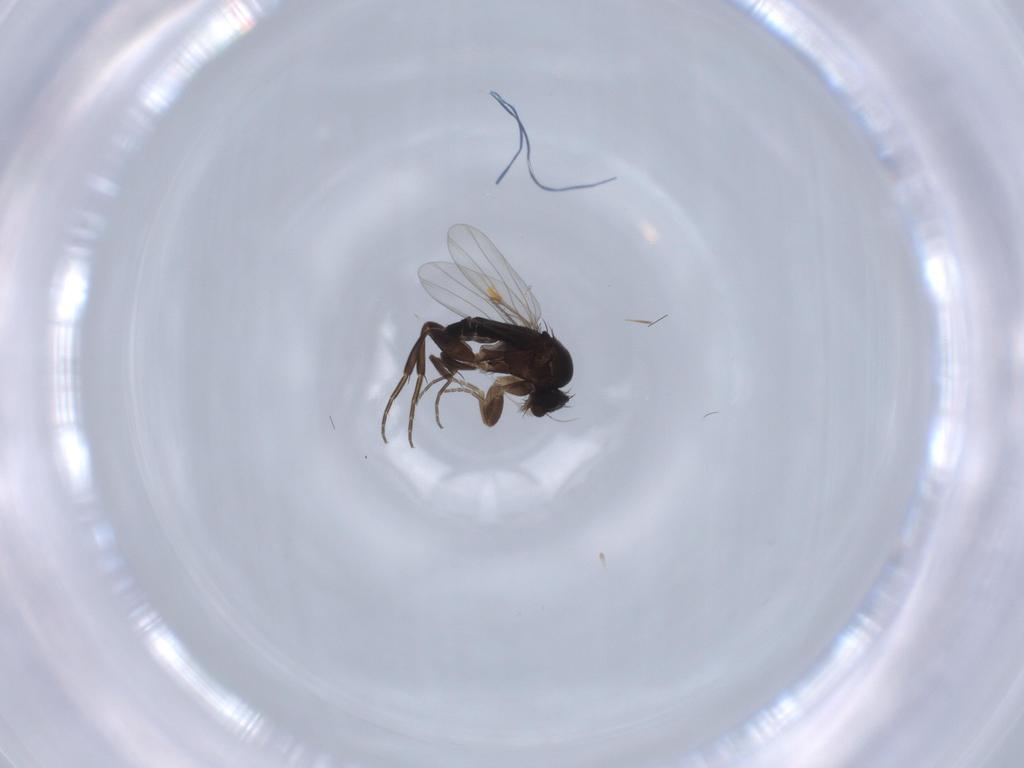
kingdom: Animalia
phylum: Arthropoda
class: Insecta
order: Diptera
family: Phoridae
